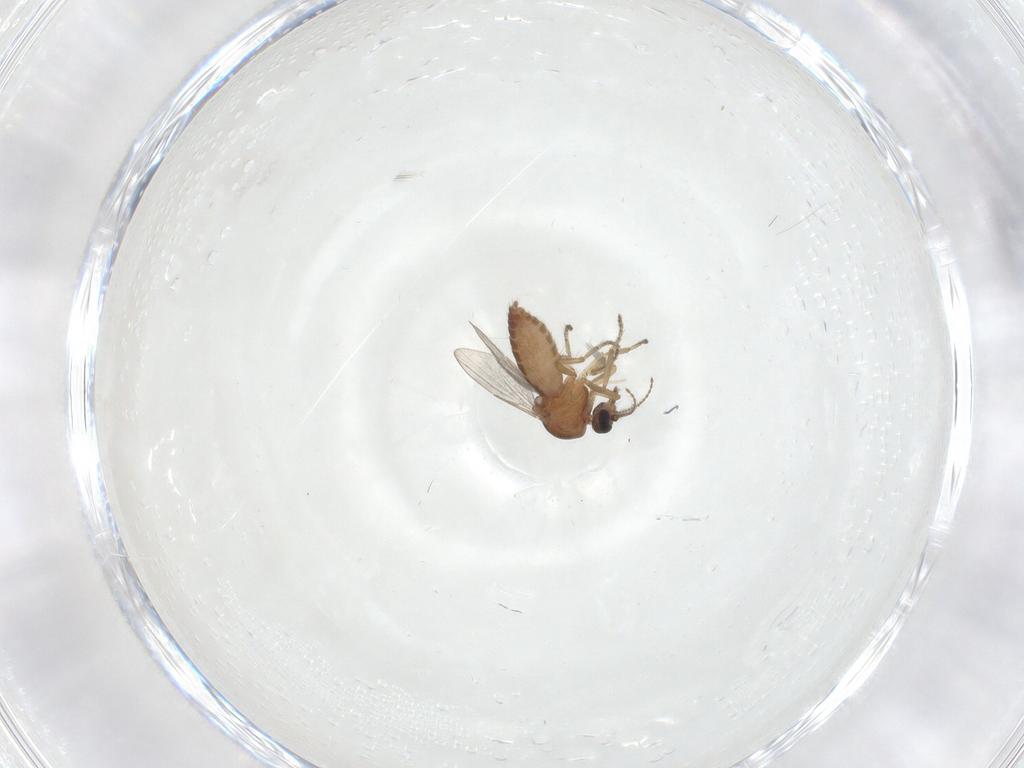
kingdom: Animalia
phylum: Arthropoda
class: Insecta
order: Diptera
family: Ceratopogonidae
